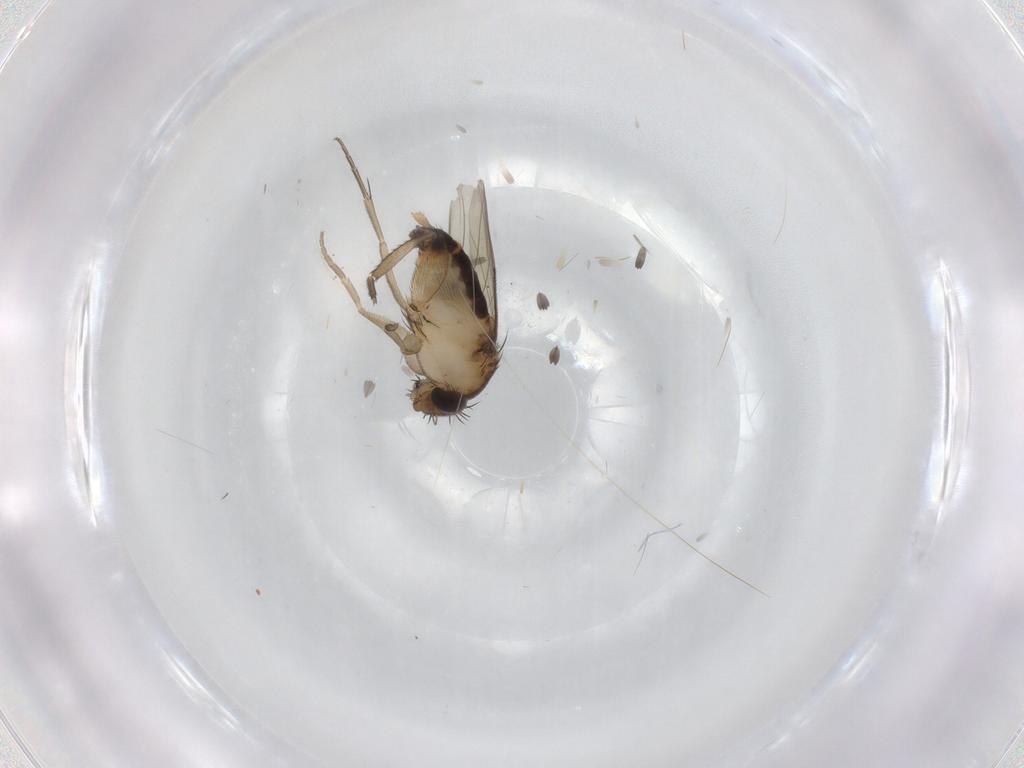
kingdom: Animalia
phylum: Arthropoda
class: Insecta
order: Diptera
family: Phoridae
